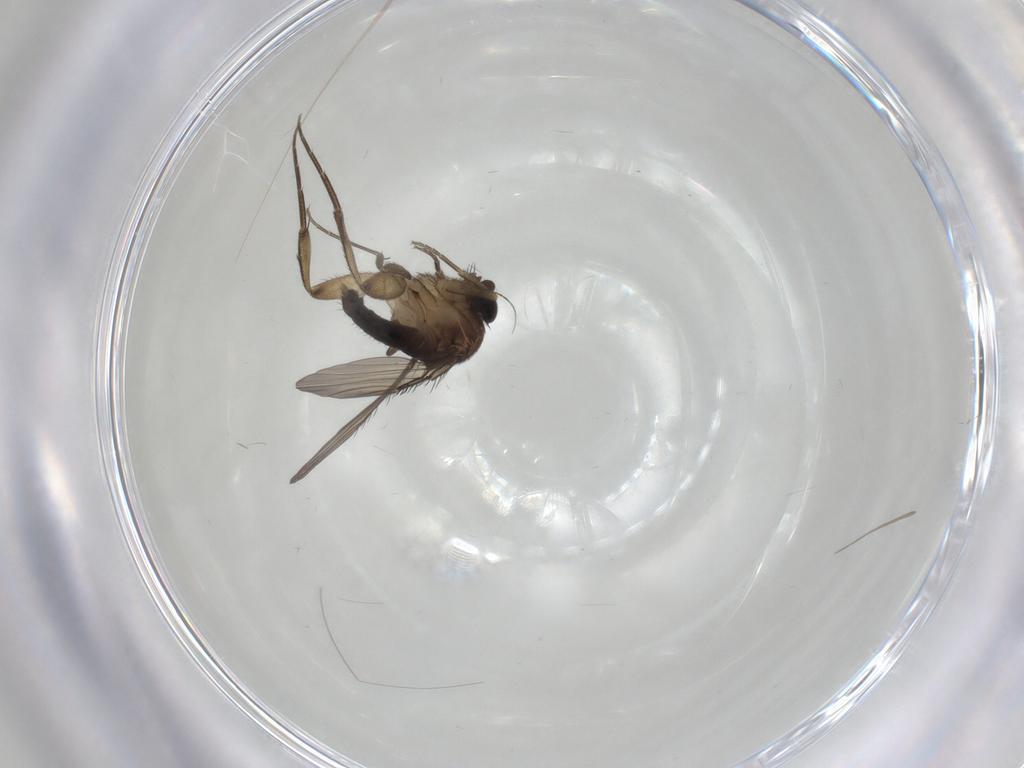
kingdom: Animalia
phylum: Arthropoda
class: Insecta
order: Diptera
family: Phoridae
